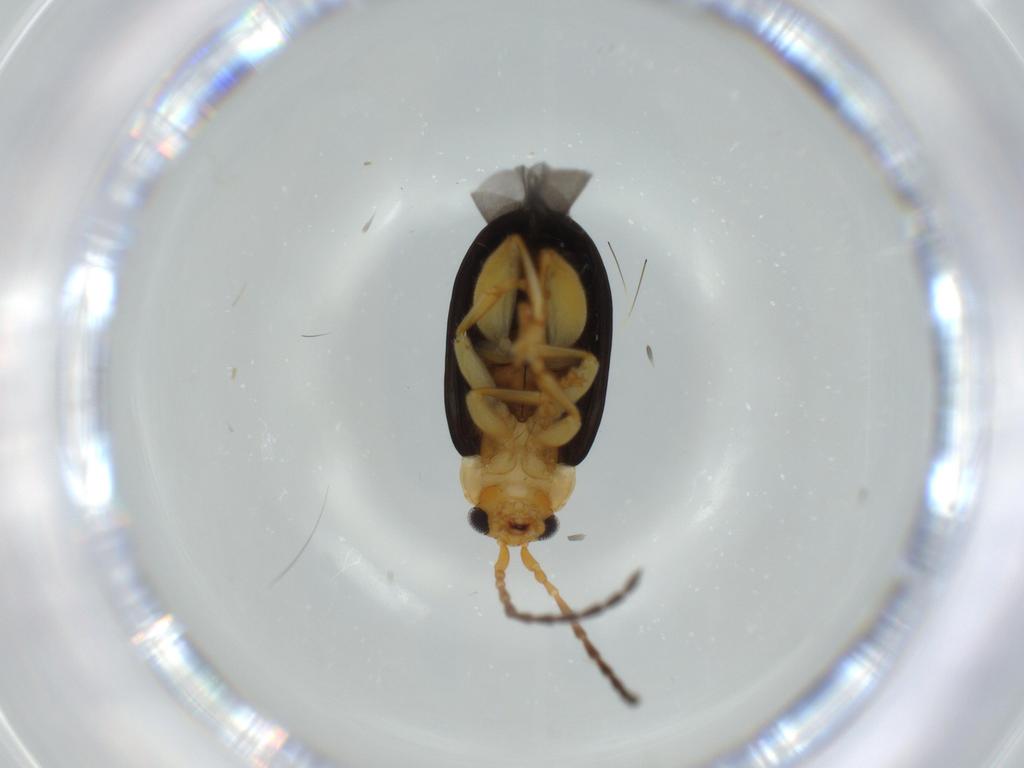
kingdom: Animalia
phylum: Arthropoda
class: Insecta
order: Coleoptera
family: Chrysomelidae
